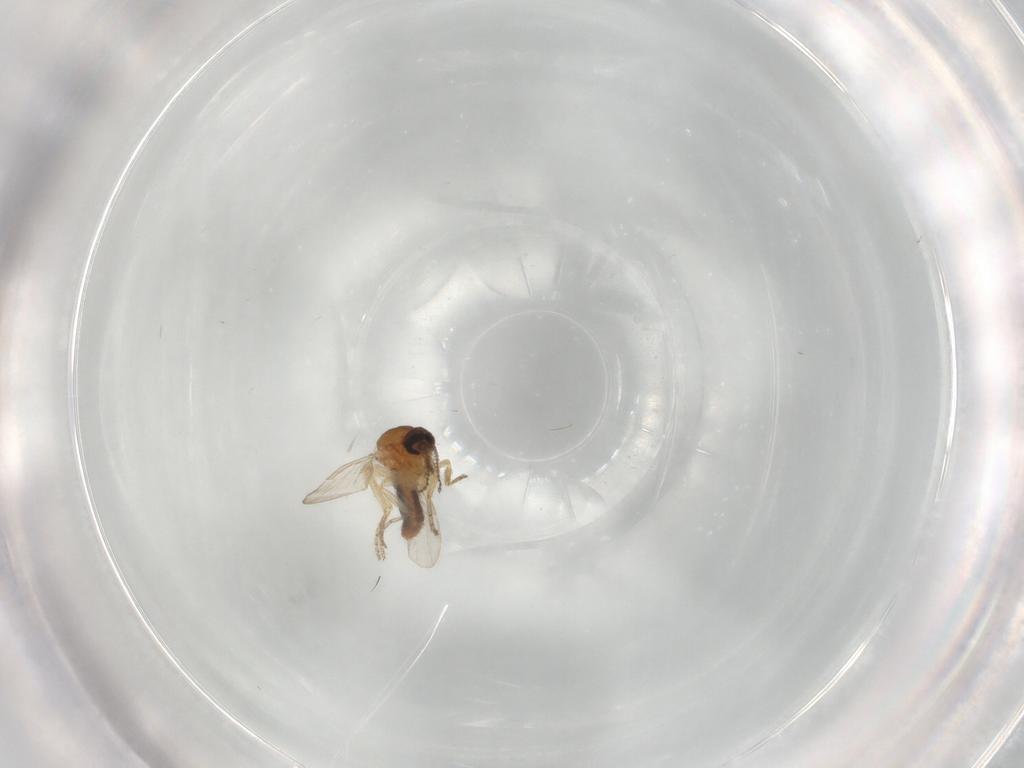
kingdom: Animalia
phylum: Arthropoda
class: Insecta
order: Diptera
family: Ceratopogonidae
